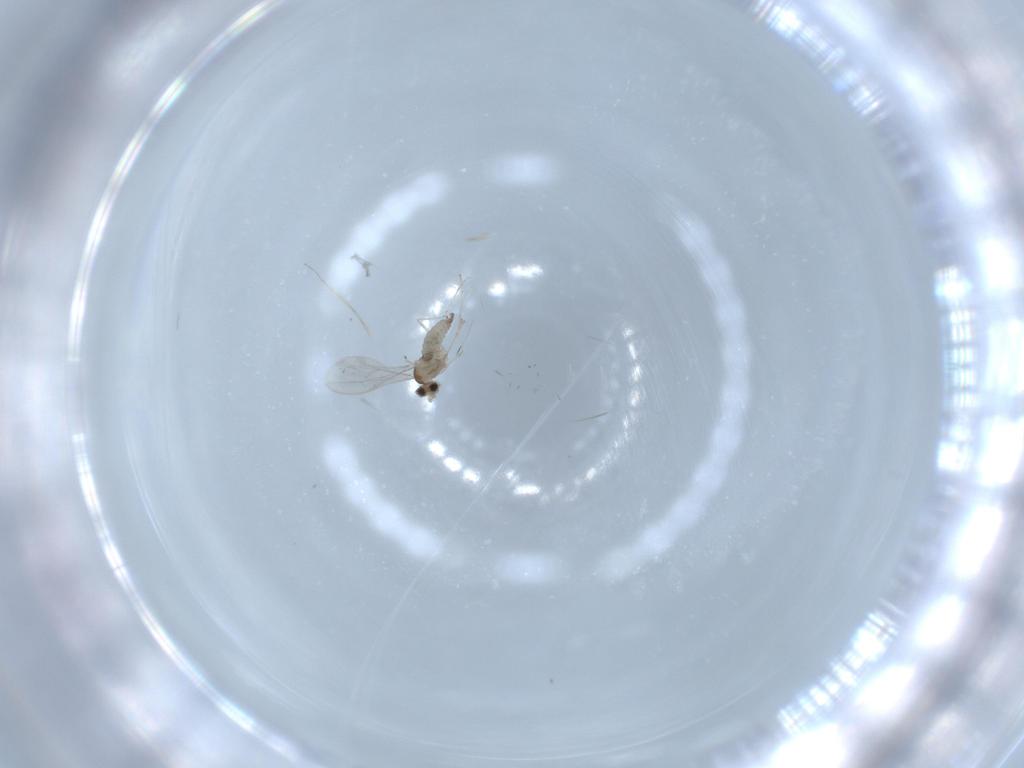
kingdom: Animalia
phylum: Arthropoda
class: Insecta
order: Diptera
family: Cecidomyiidae
